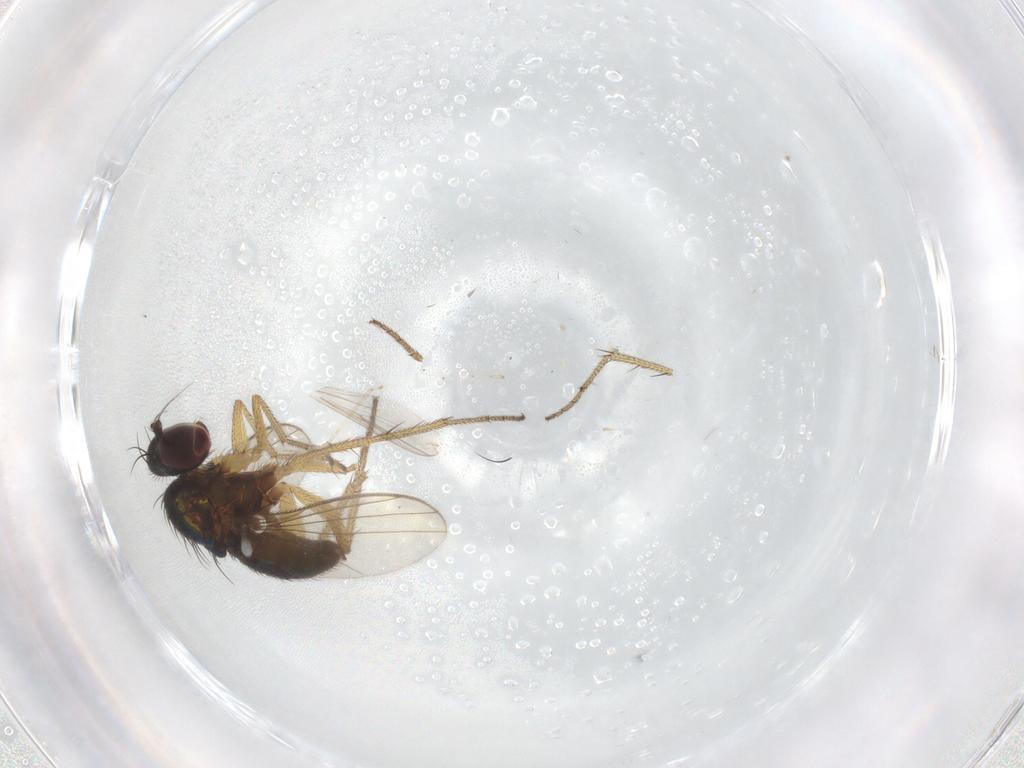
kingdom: Animalia
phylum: Arthropoda
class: Insecta
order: Diptera
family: Dolichopodidae
